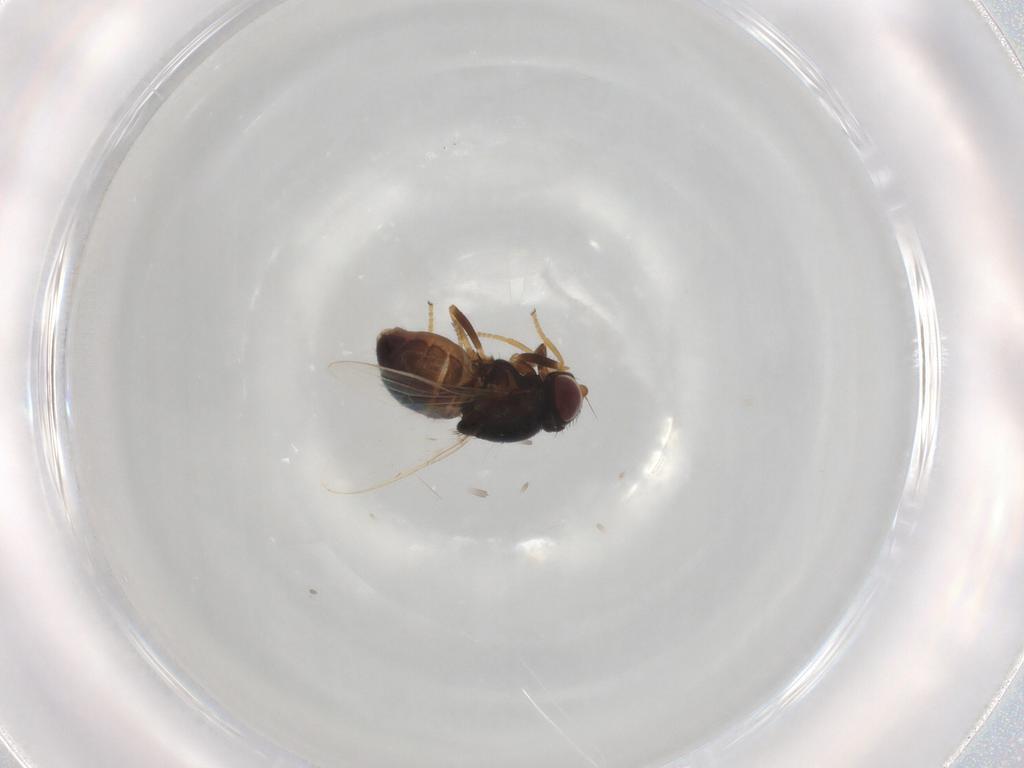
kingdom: Animalia
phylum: Arthropoda
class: Insecta
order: Diptera
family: Chloropidae
